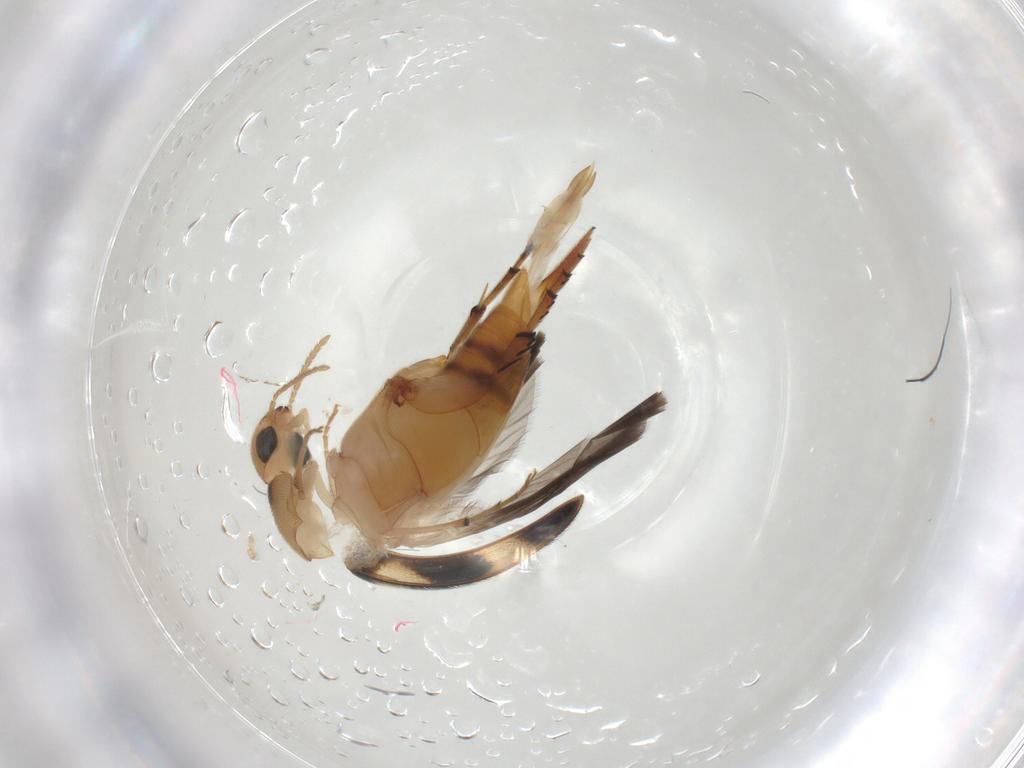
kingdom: Animalia
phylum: Arthropoda
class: Insecta
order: Coleoptera
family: Mordellidae
